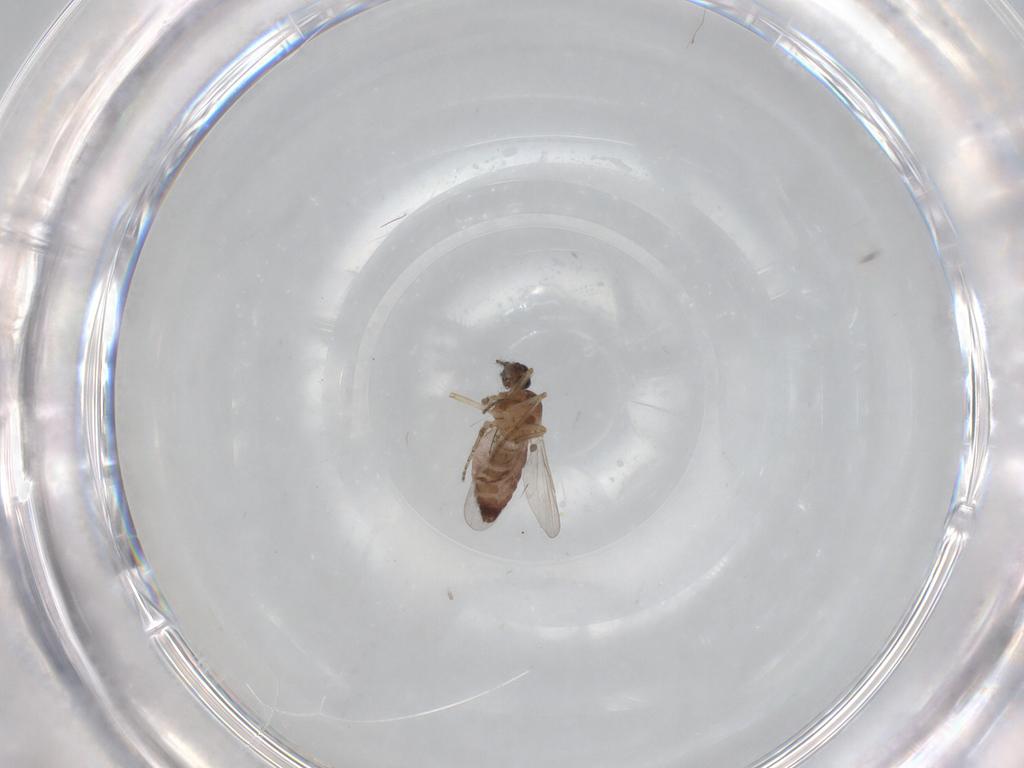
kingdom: Animalia
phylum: Arthropoda
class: Insecta
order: Diptera
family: Ceratopogonidae
